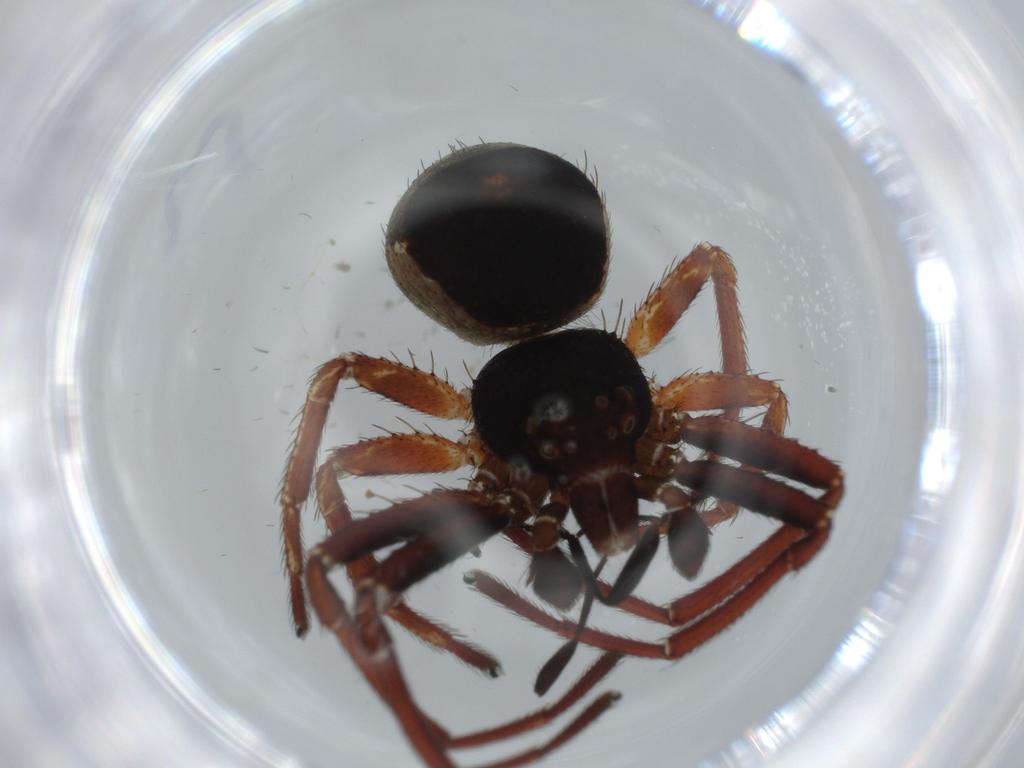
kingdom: Animalia
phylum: Arthropoda
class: Arachnida
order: Araneae
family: Thomisidae
